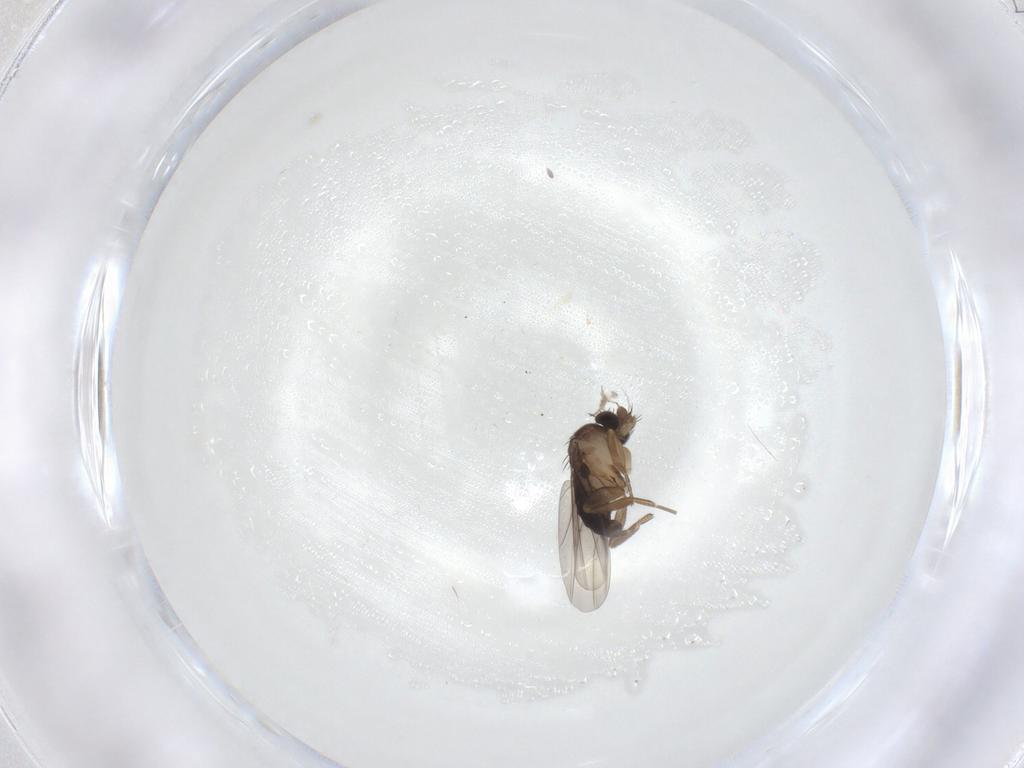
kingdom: Animalia
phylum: Arthropoda
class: Insecta
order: Diptera
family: Ceratopogonidae
